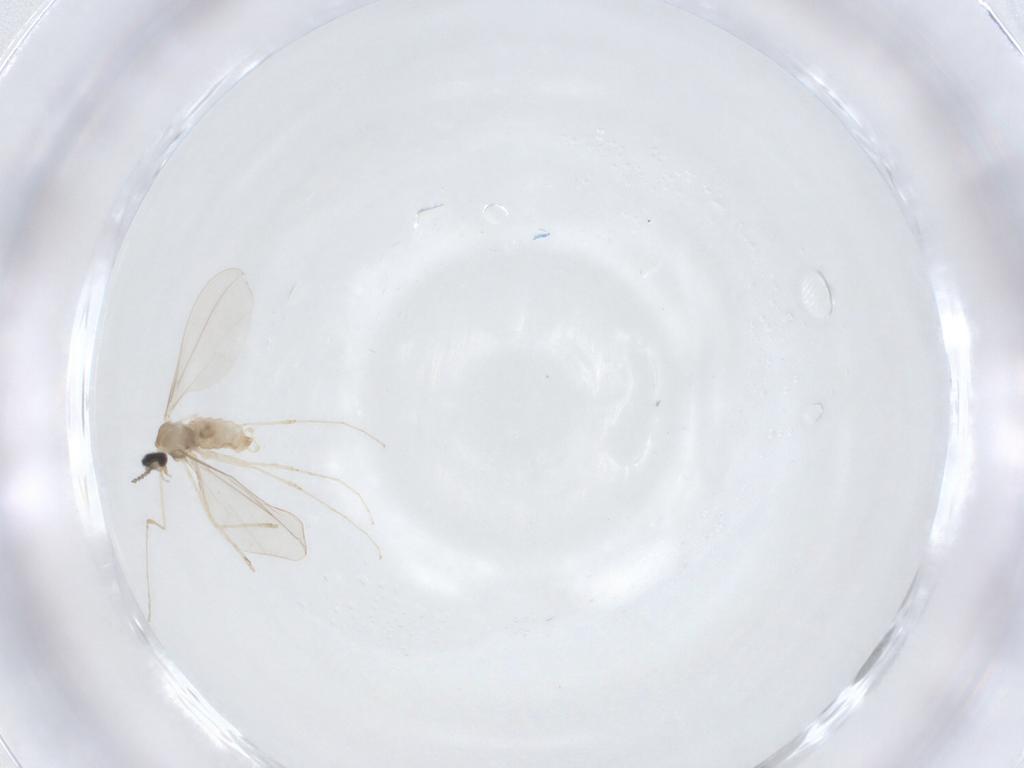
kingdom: Animalia
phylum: Arthropoda
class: Insecta
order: Diptera
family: Cecidomyiidae
